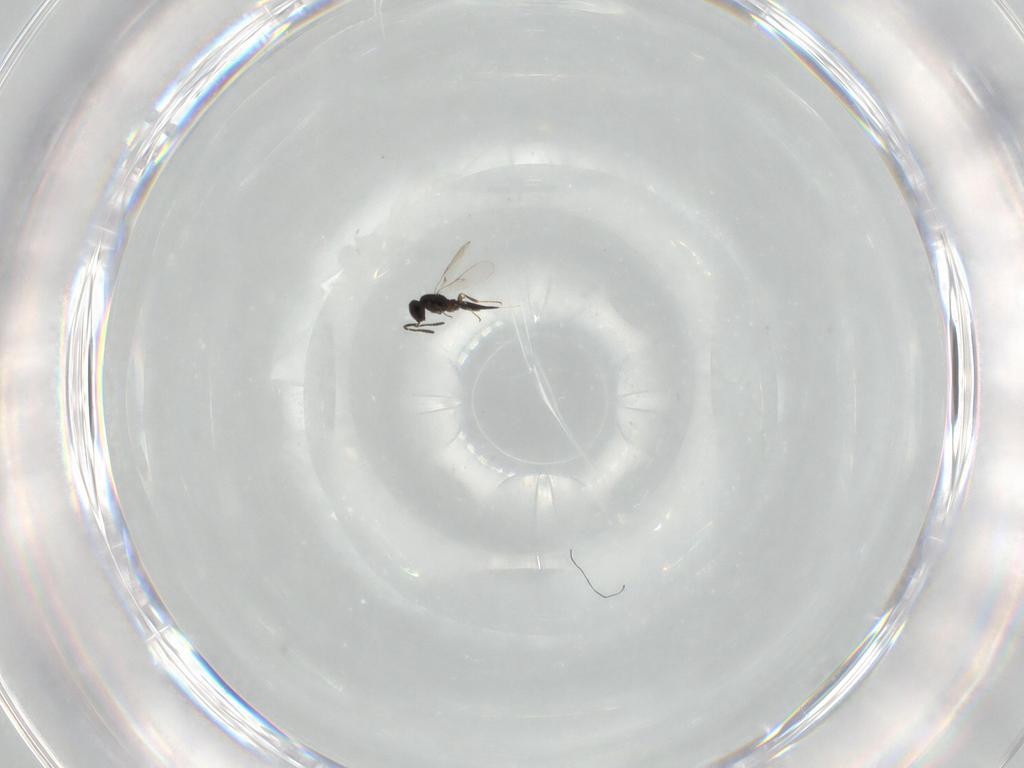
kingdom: Animalia
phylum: Arthropoda
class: Insecta
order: Hymenoptera
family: Scelionidae
